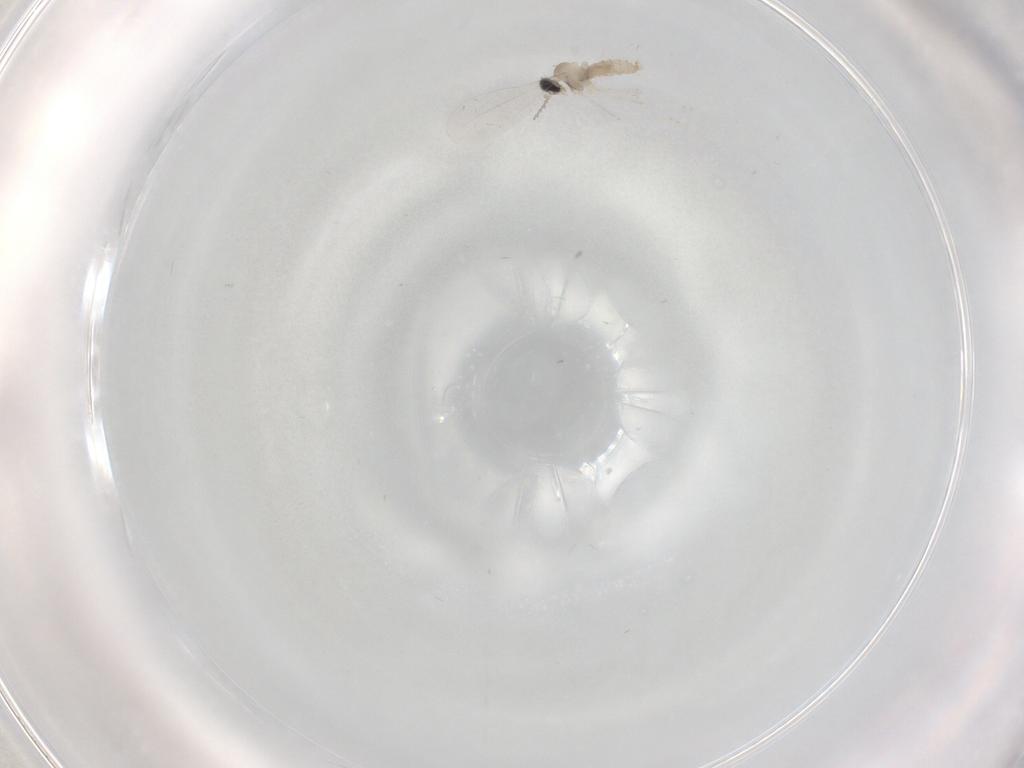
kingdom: Animalia
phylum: Arthropoda
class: Insecta
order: Diptera
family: Cecidomyiidae
